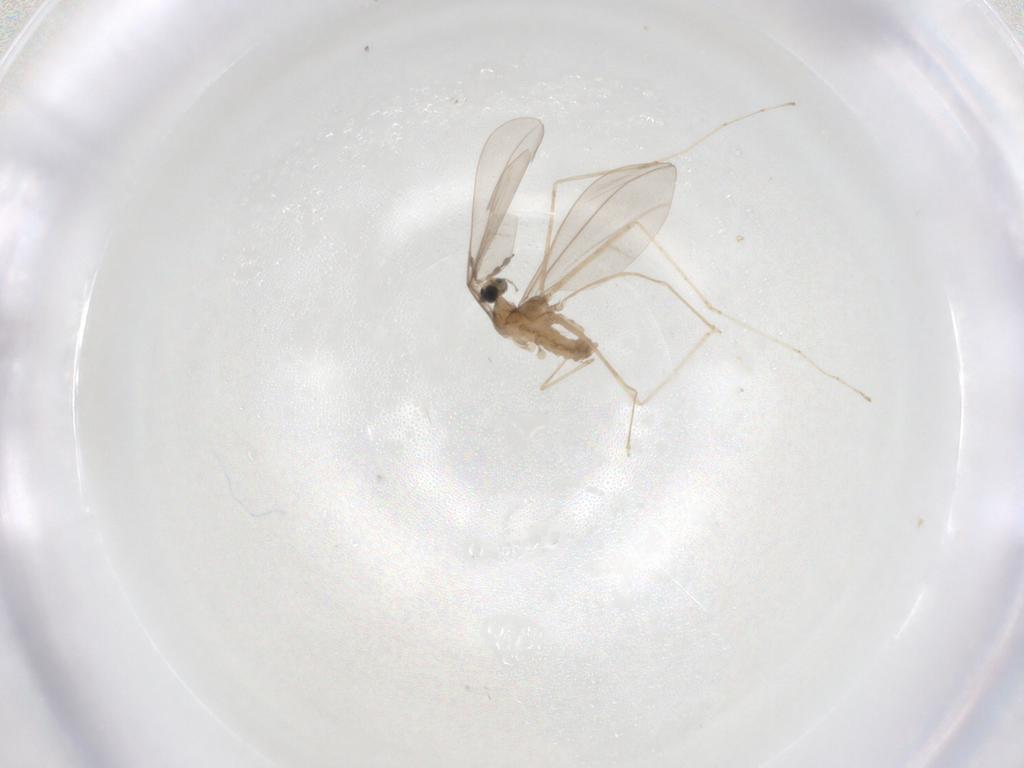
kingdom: Animalia
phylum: Arthropoda
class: Insecta
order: Diptera
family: Cecidomyiidae
